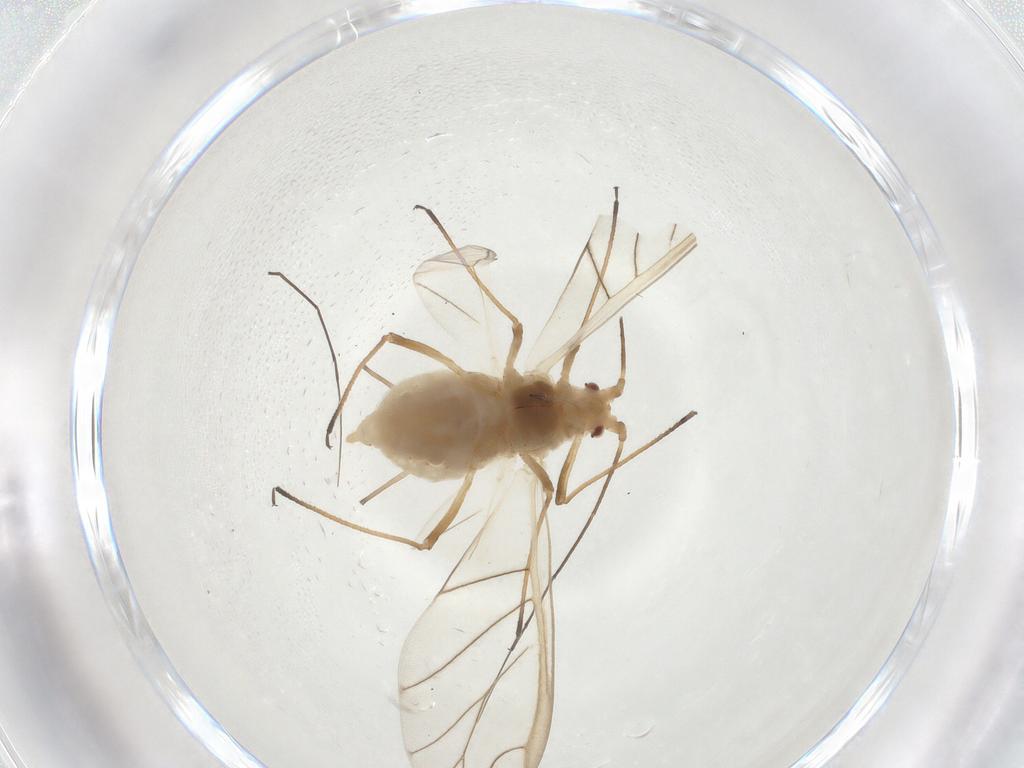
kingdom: Animalia
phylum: Arthropoda
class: Insecta
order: Hemiptera
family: Aphididae
